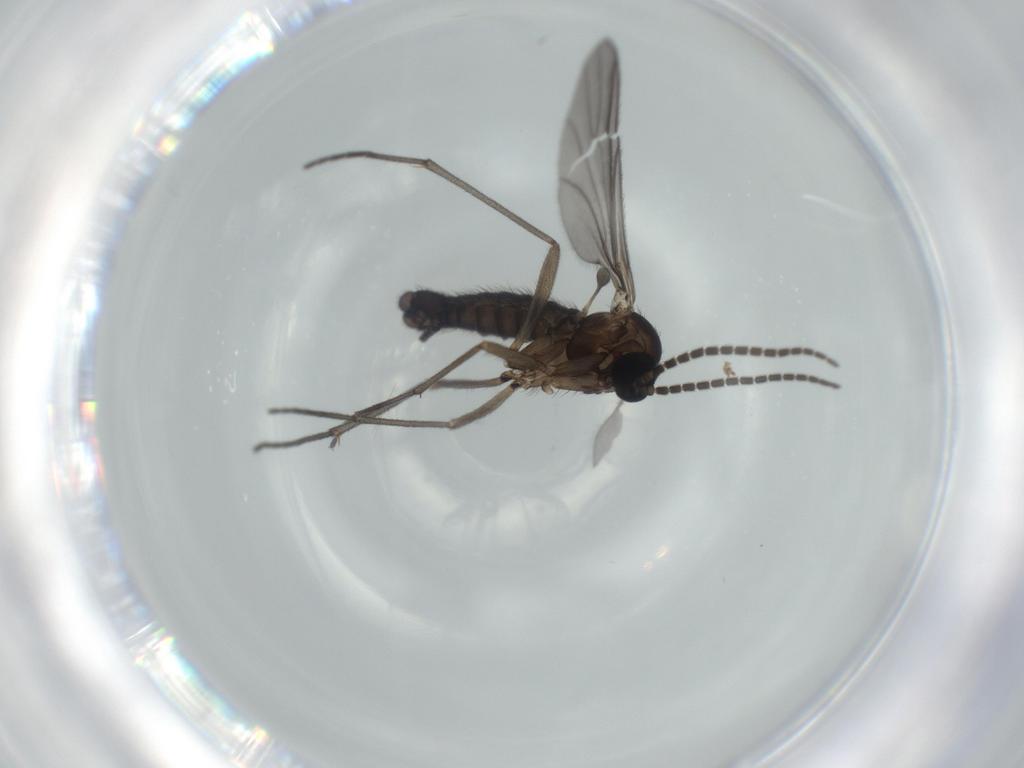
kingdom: Animalia
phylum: Arthropoda
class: Insecta
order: Diptera
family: Sciaridae
